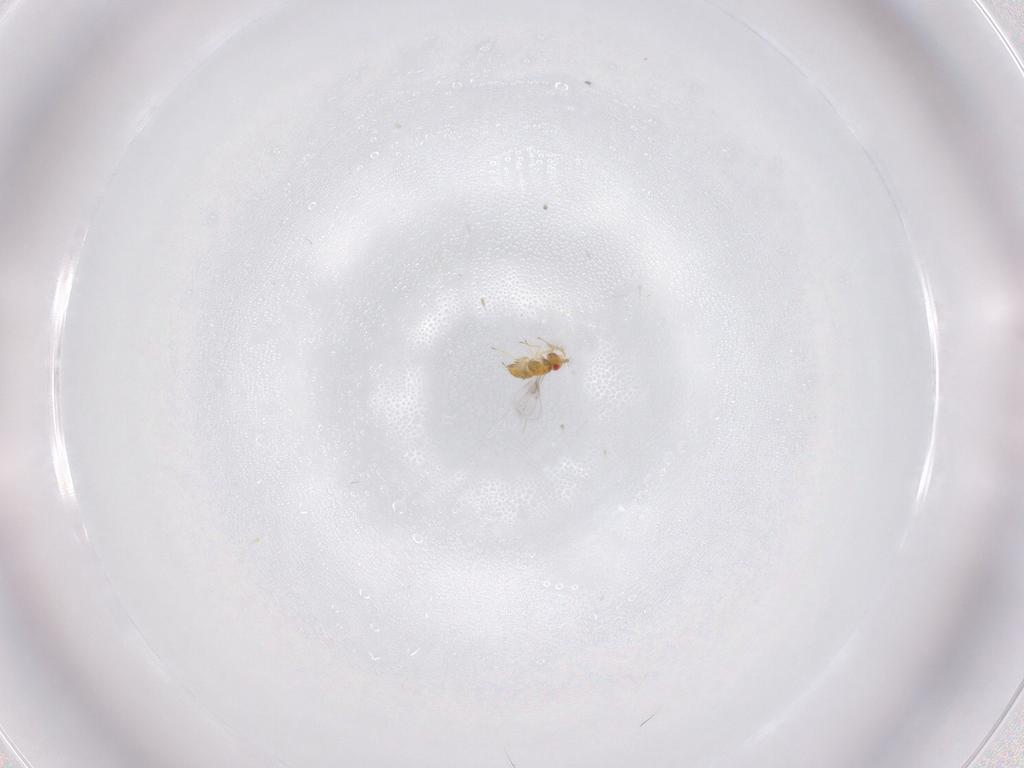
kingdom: Animalia
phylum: Arthropoda
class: Insecta
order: Hymenoptera
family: Trichogrammatidae
